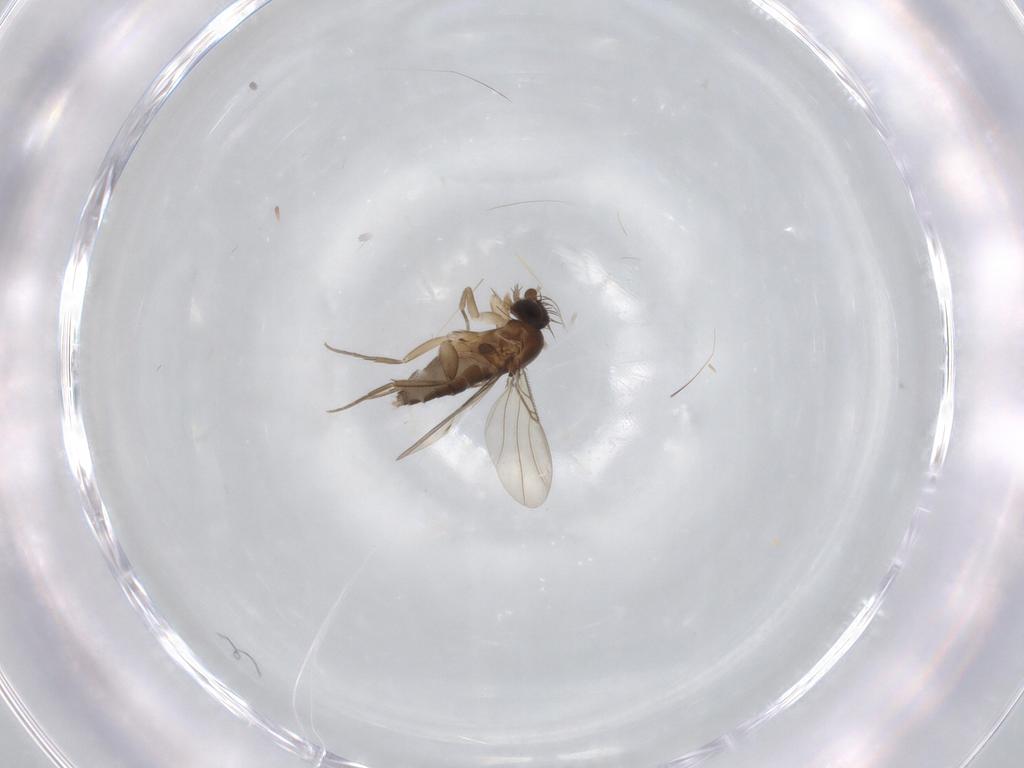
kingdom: Animalia
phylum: Arthropoda
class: Insecta
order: Diptera
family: Phoridae
